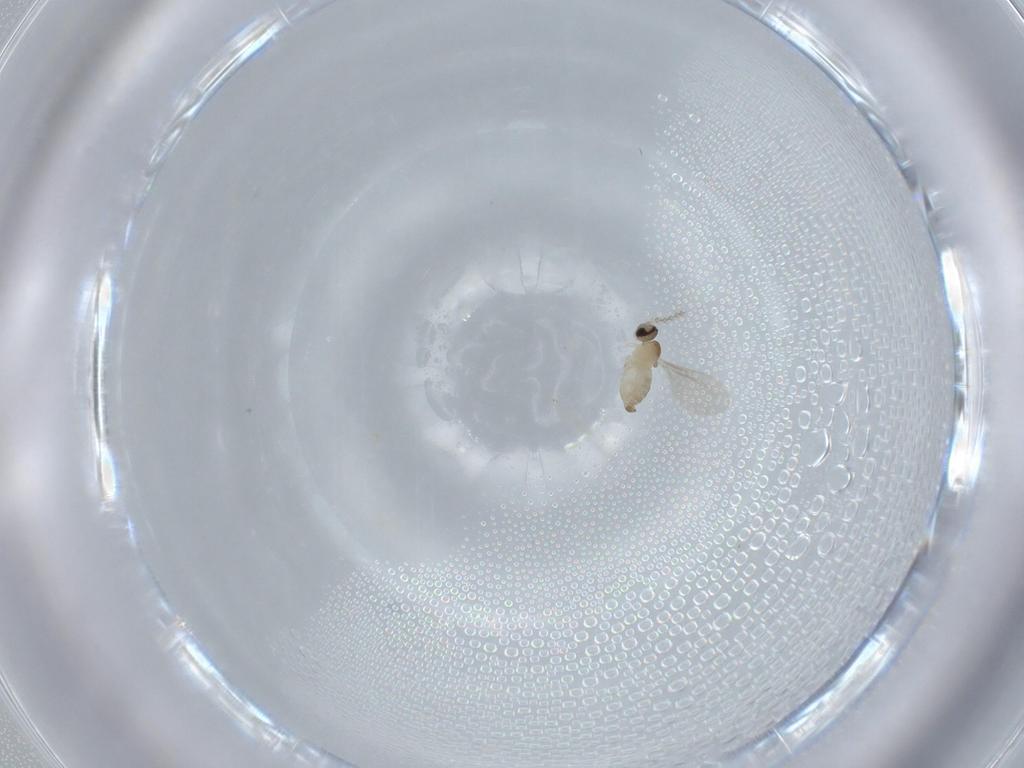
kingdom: Animalia
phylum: Arthropoda
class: Insecta
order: Diptera
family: Cecidomyiidae
